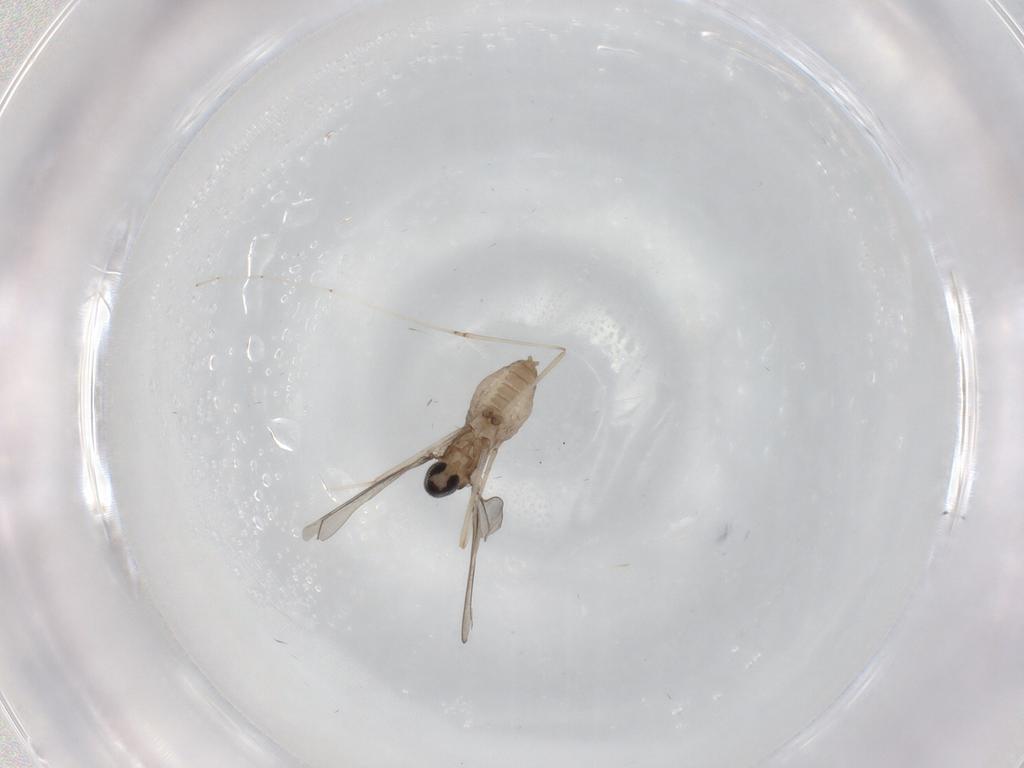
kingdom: Animalia
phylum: Arthropoda
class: Insecta
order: Diptera
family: Cecidomyiidae
